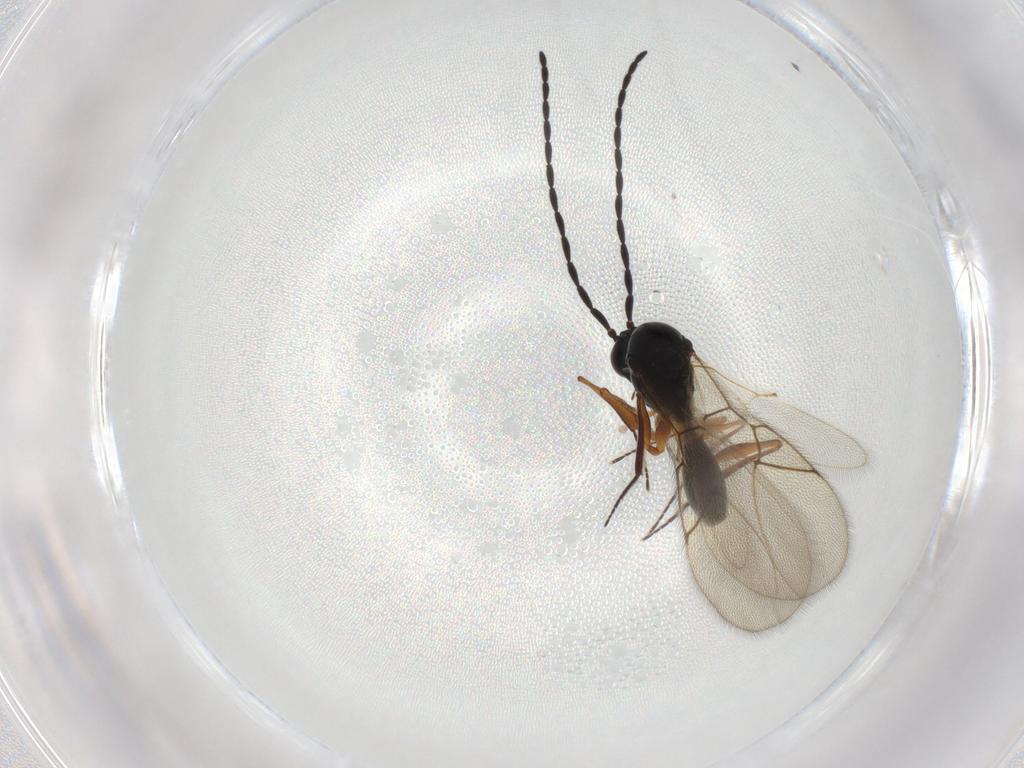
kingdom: Animalia
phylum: Arthropoda
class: Insecta
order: Hymenoptera
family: Figitidae
